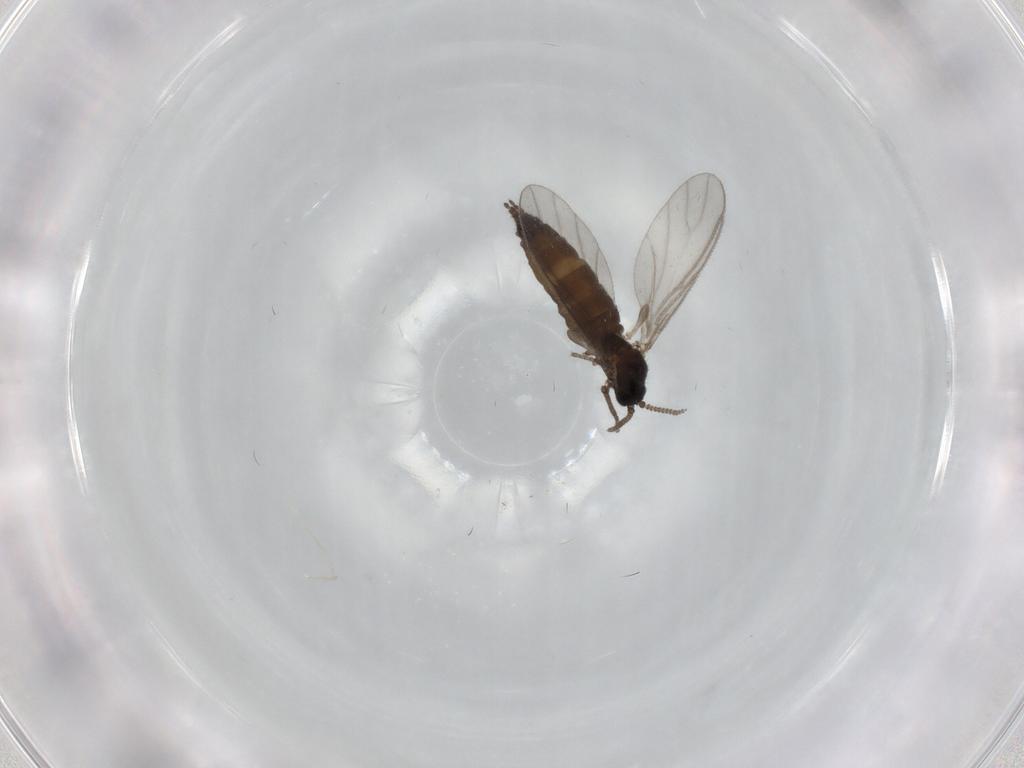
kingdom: Animalia
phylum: Arthropoda
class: Insecta
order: Diptera
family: Sciaridae
